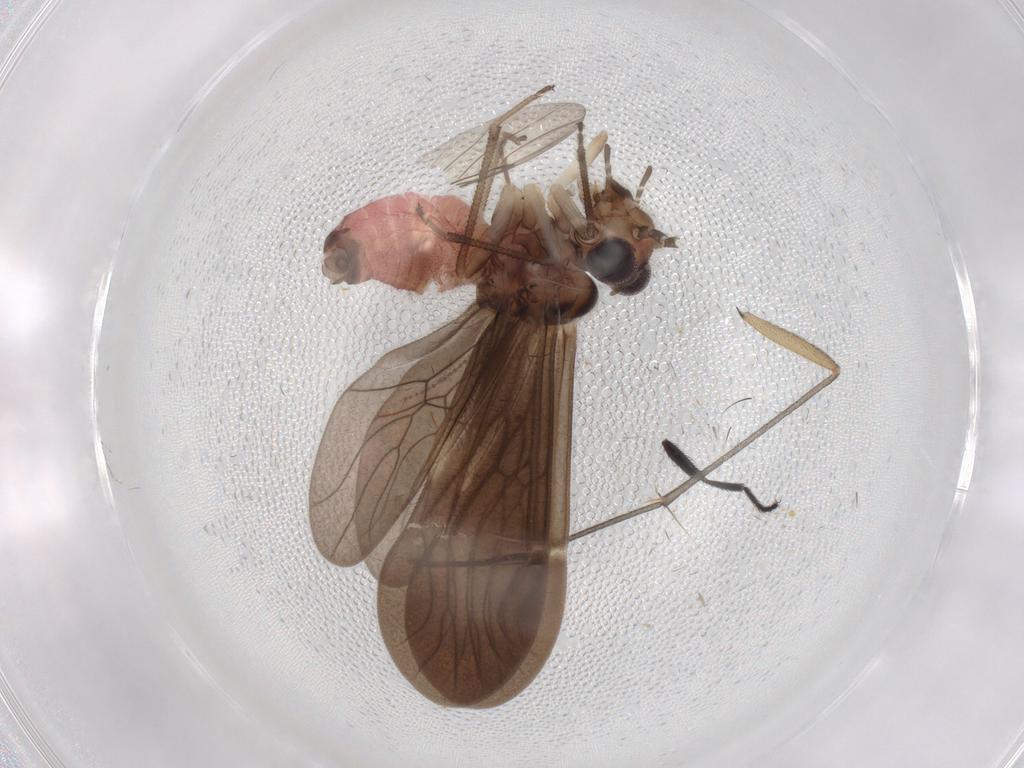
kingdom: Animalia
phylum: Arthropoda
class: Insecta
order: Psocodea
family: Amphipsocidae
